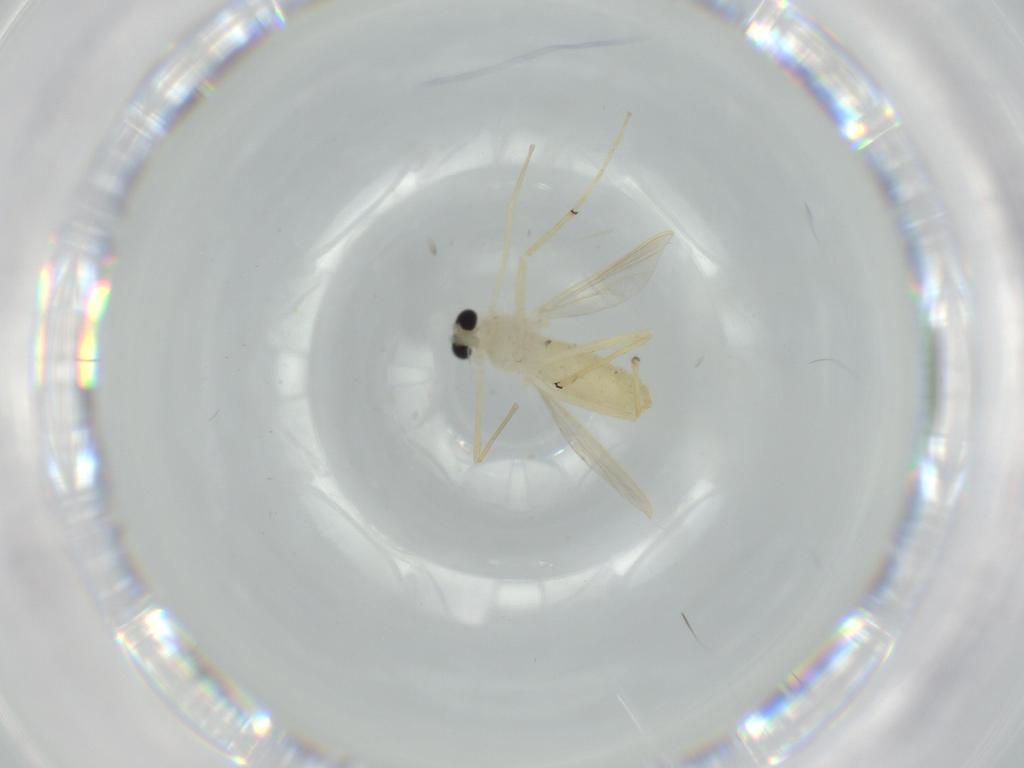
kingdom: Animalia
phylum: Arthropoda
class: Insecta
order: Diptera
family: Chironomidae
